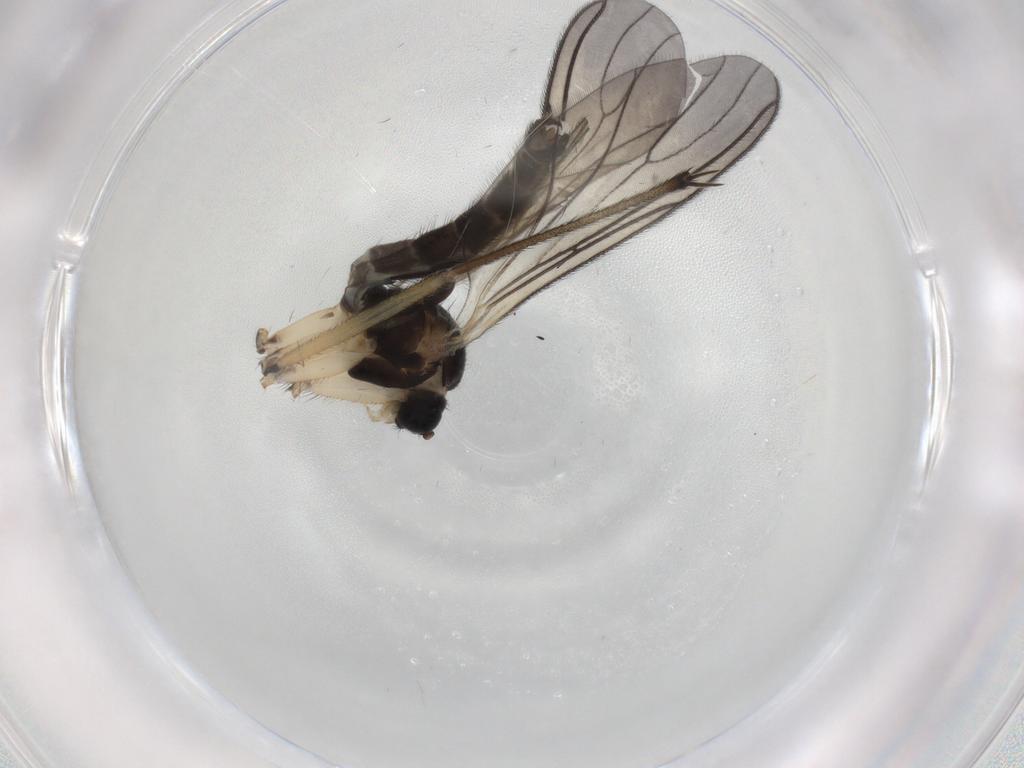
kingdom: Animalia
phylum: Arthropoda
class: Insecta
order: Diptera
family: Sciaridae
